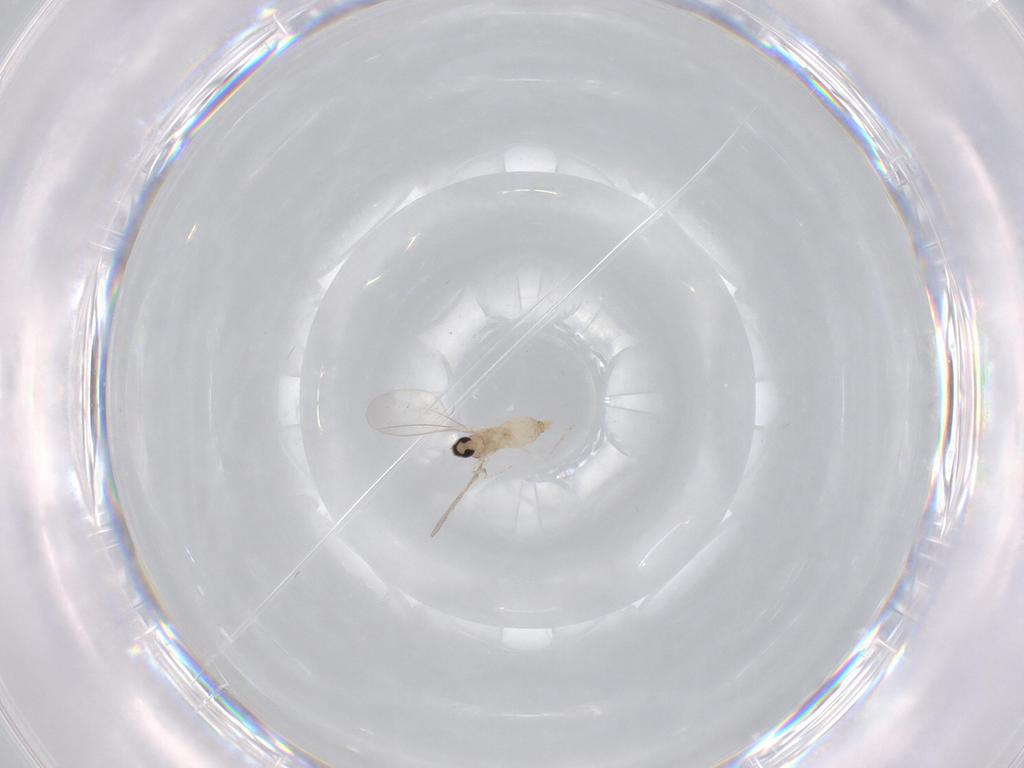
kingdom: Animalia
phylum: Arthropoda
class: Insecta
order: Diptera
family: Cecidomyiidae
